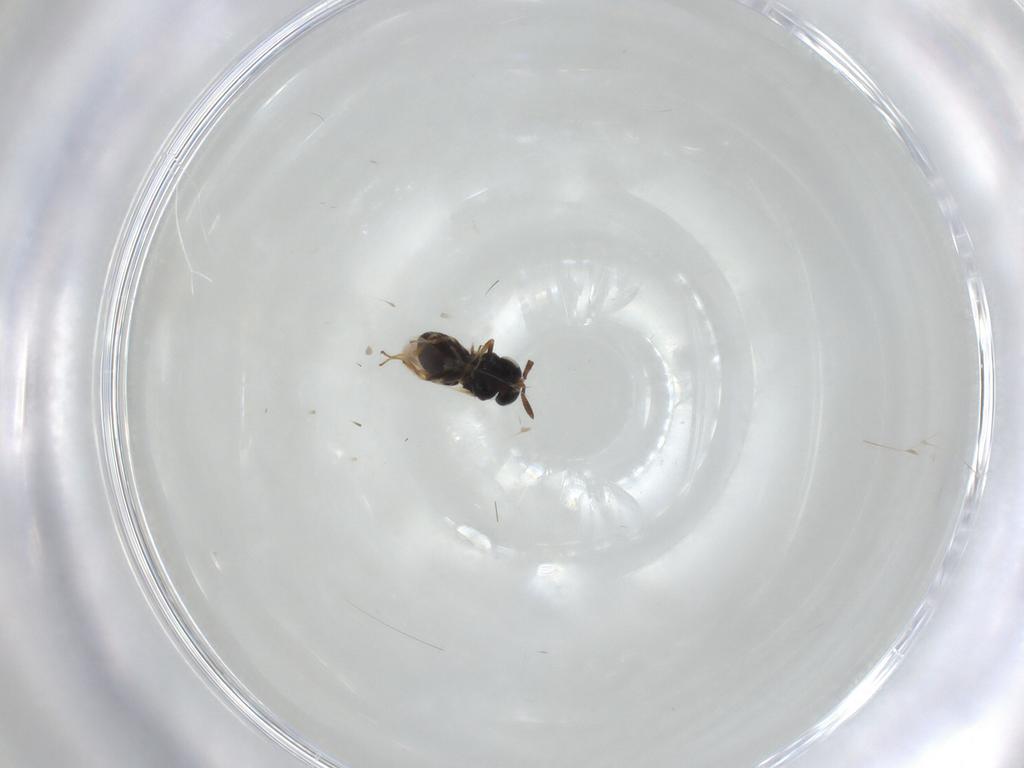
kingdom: Animalia
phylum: Arthropoda
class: Insecta
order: Hymenoptera
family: Scelionidae
